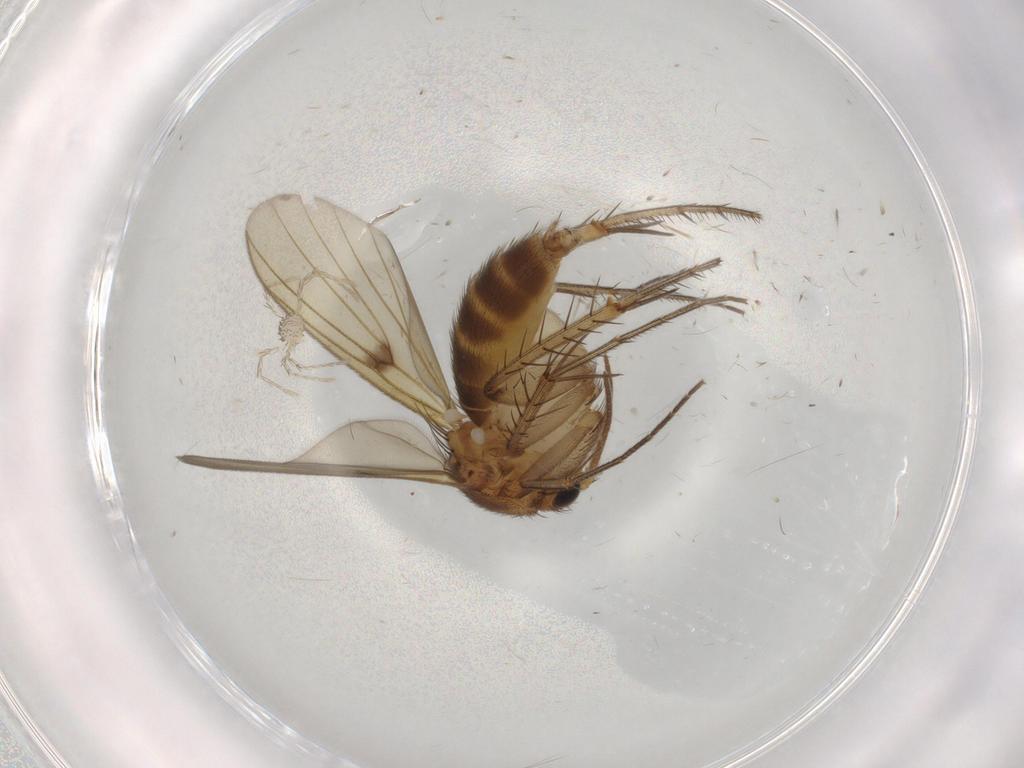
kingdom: Animalia
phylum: Arthropoda
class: Insecta
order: Diptera
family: Mycetophilidae
